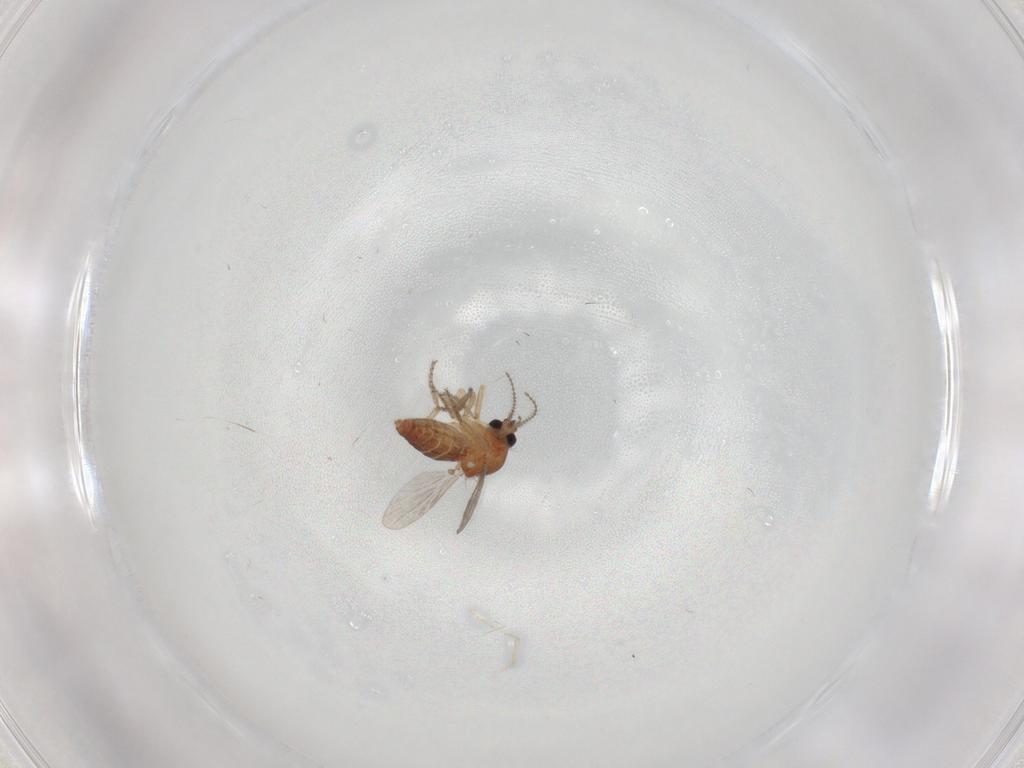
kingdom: Animalia
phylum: Arthropoda
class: Insecta
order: Diptera
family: Ceratopogonidae
